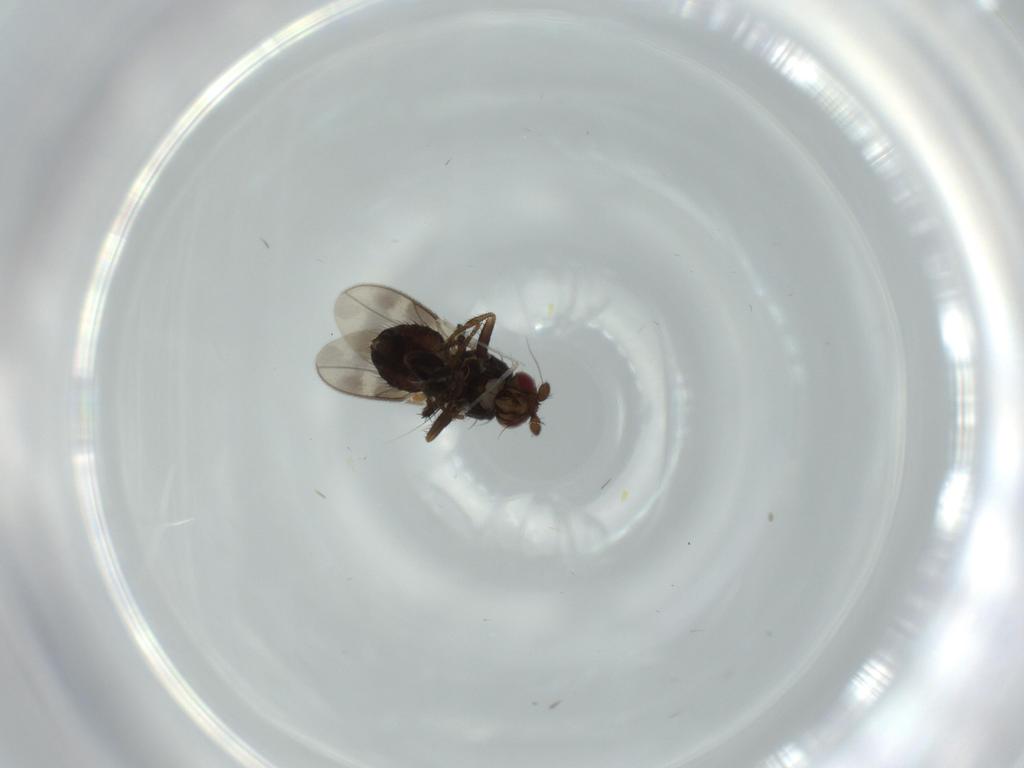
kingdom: Animalia
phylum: Arthropoda
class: Insecta
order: Diptera
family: Cecidomyiidae
